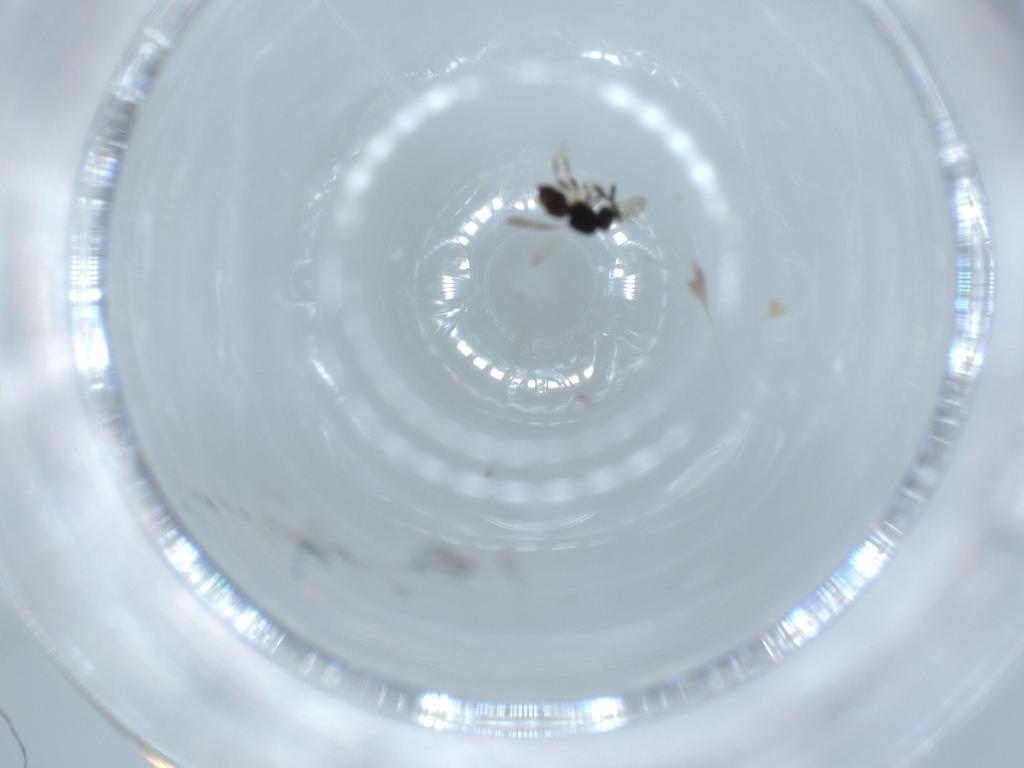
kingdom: Animalia
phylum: Arthropoda
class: Insecta
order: Hymenoptera
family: Ceraphronidae
